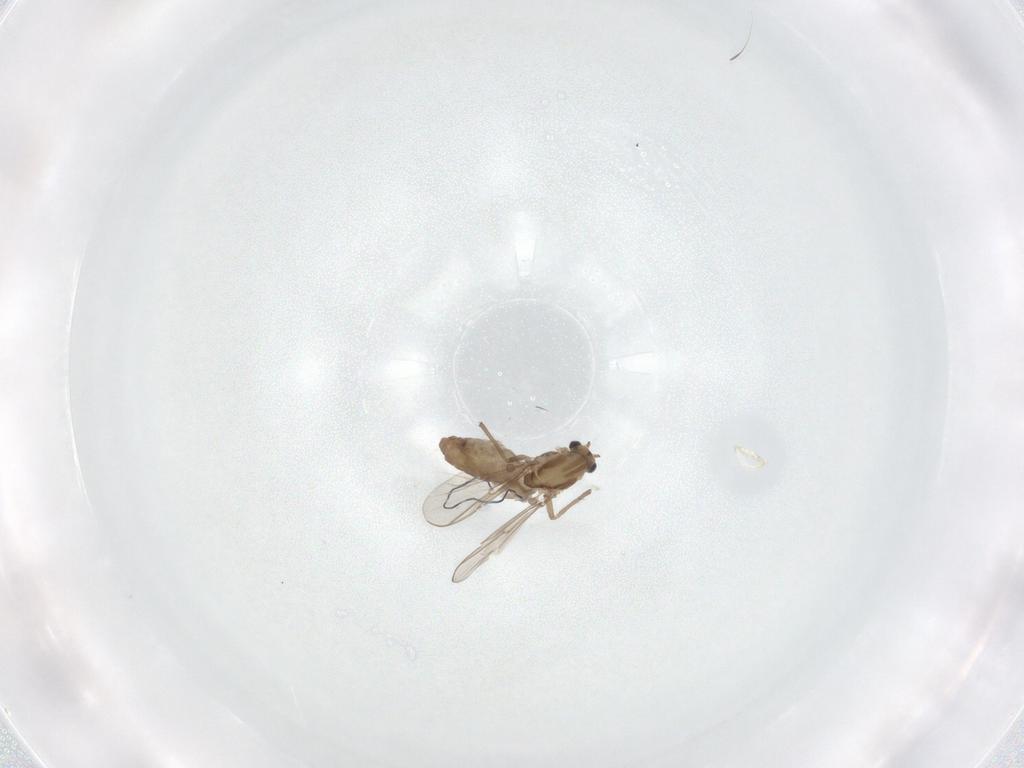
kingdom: Animalia
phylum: Arthropoda
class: Insecta
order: Diptera
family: Chironomidae
